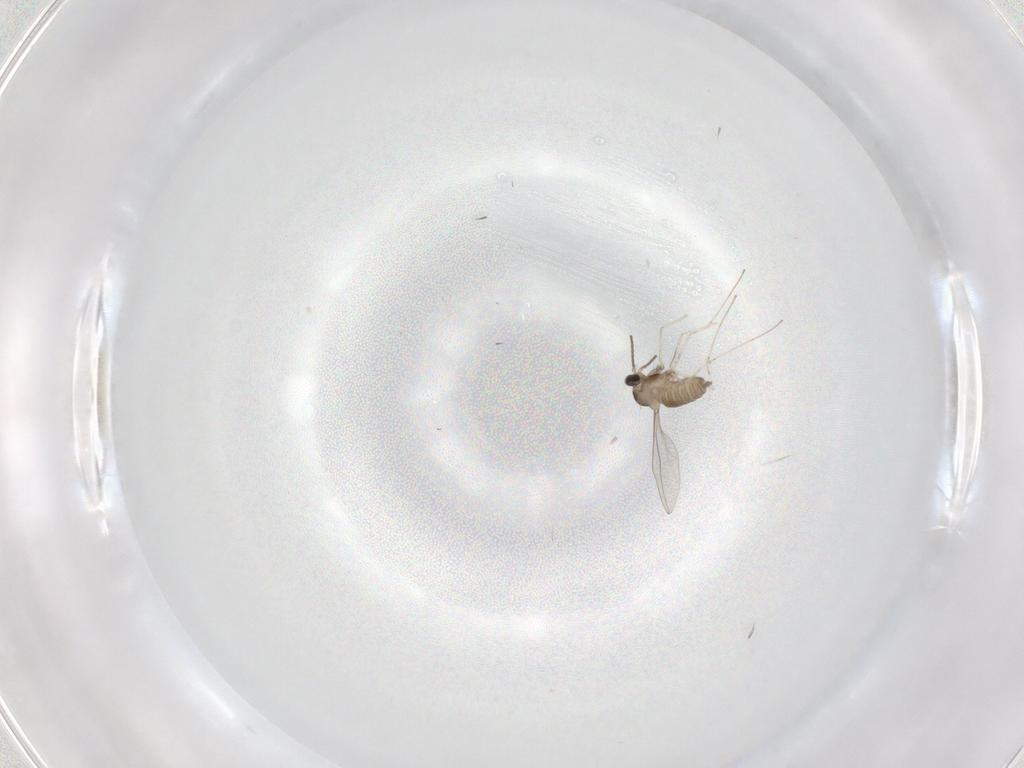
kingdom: Animalia
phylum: Arthropoda
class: Insecta
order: Diptera
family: Cecidomyiidae
